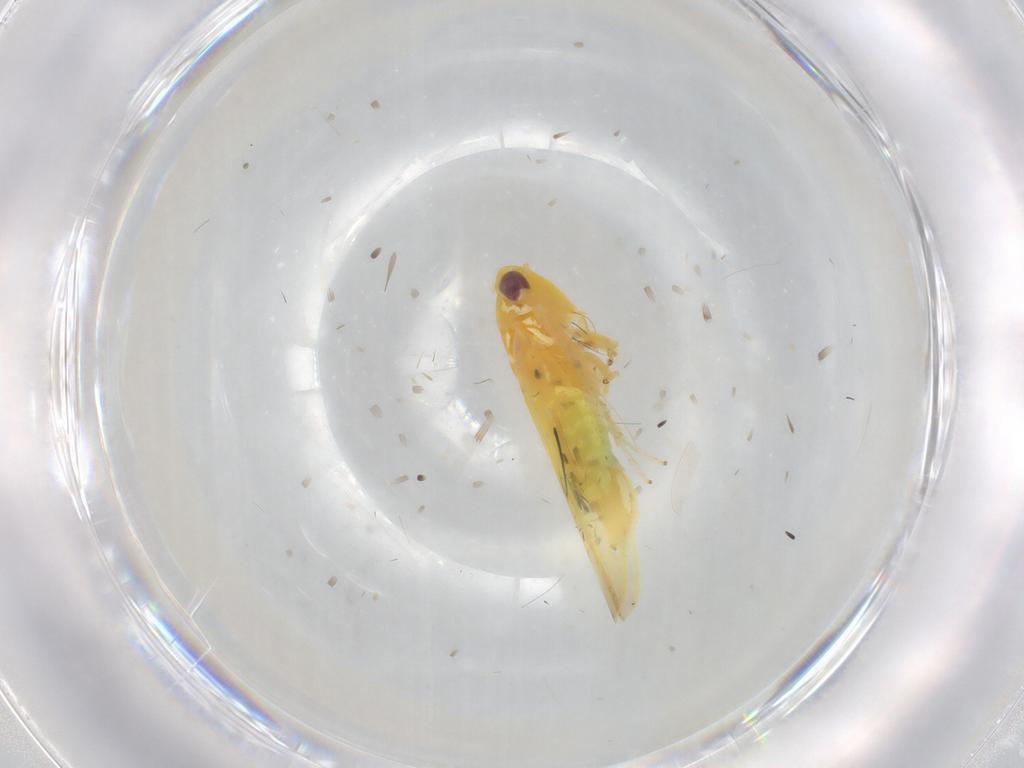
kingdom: Animalia
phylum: Arthropoda
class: Insecta
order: Hemiptera
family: Cicadellidae
